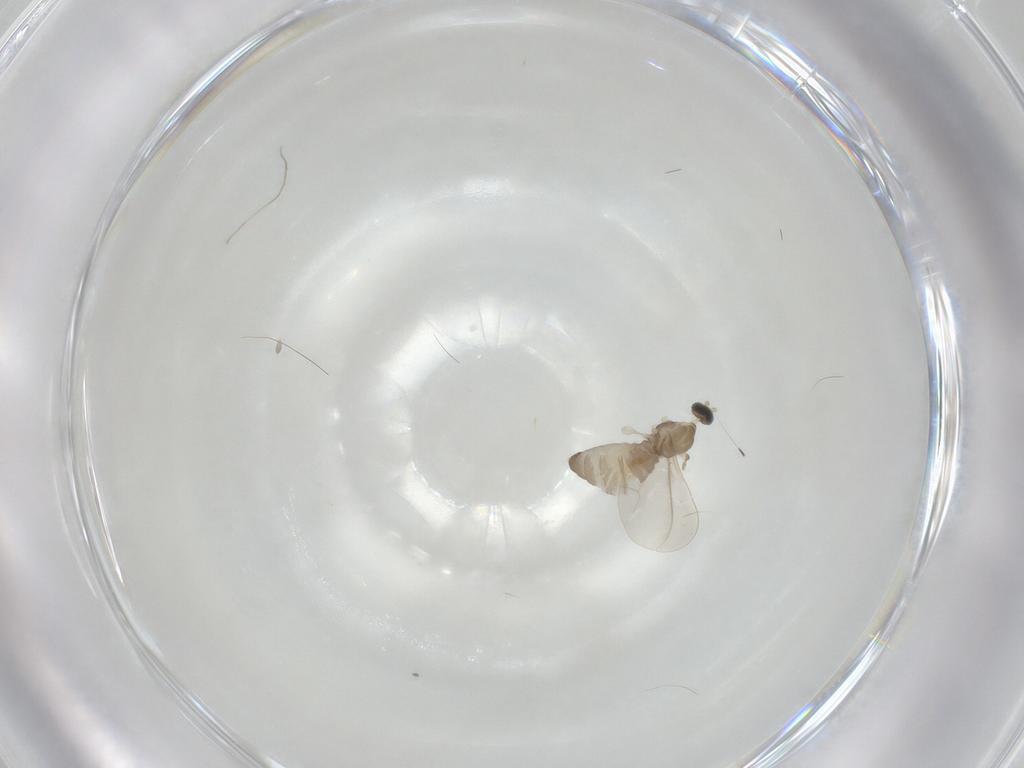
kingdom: Animalia
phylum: Arthropoda
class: Insecta
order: Diptera
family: Cecidomyiidae
